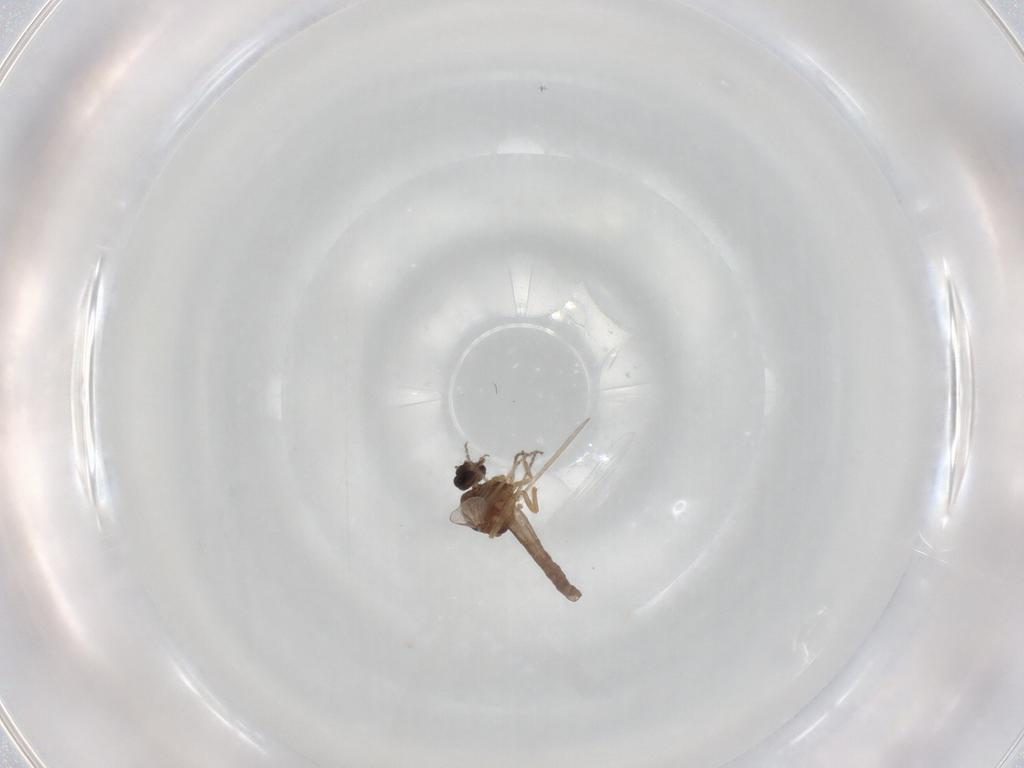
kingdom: Animalia
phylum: Arthropoda
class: Insecta
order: Diptera
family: Ceratopogonidae
